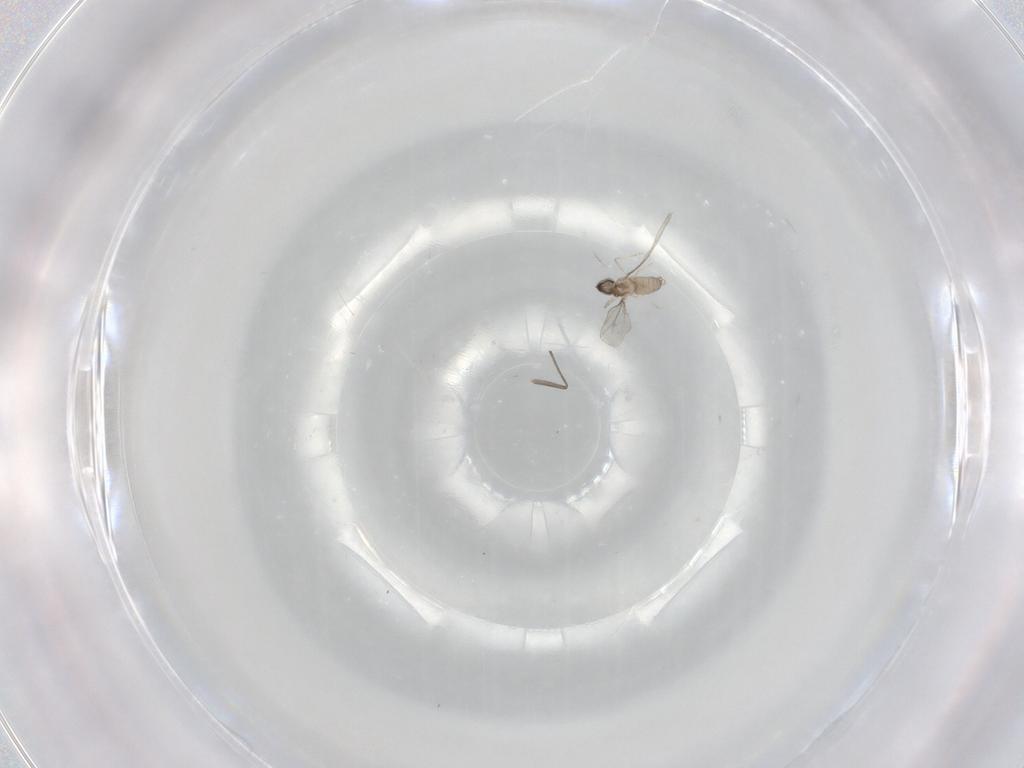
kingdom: Animalia
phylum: Arthropoda
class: Insecta
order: Diptera
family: Cecidomyiidae
